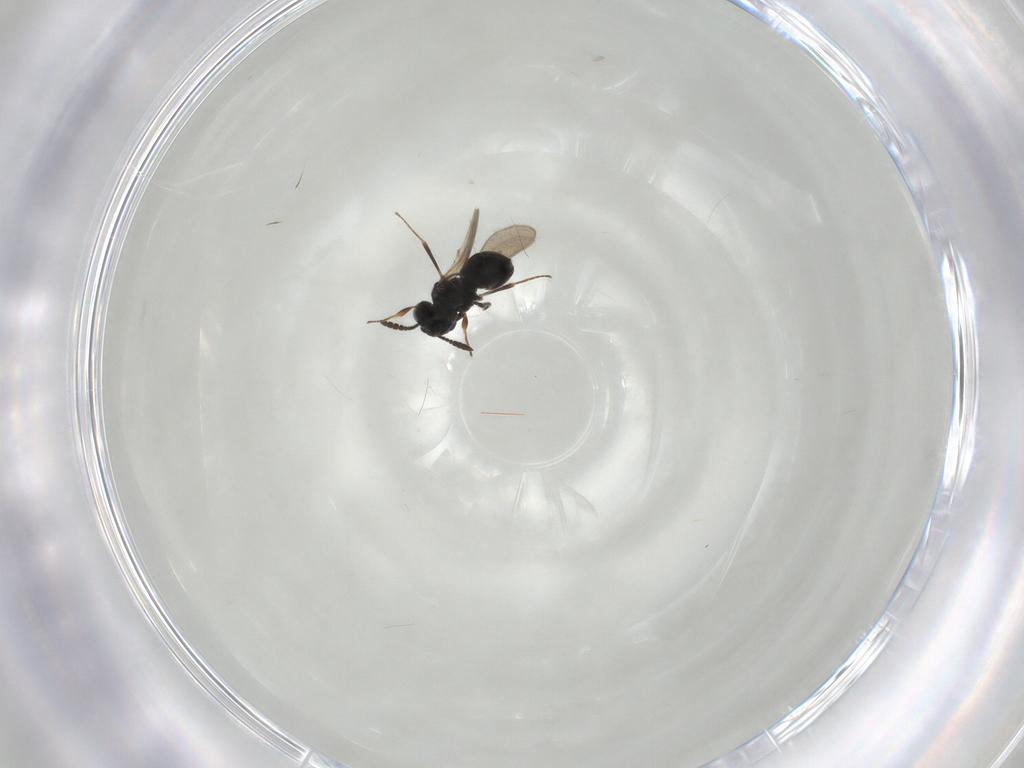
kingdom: Animalia
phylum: Arthropoda
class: Insecta
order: Hymenoptera
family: Scelionidae
